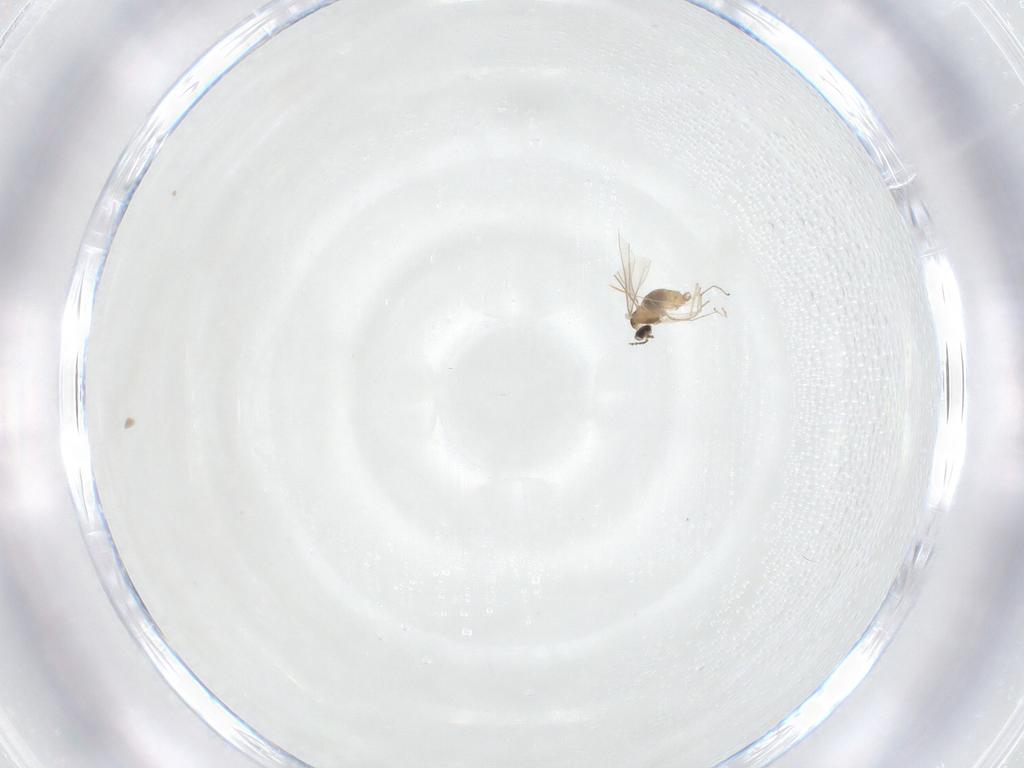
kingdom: Animalia
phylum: Arthropoda
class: Insecta
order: Diptera
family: Cecidomyiidae
